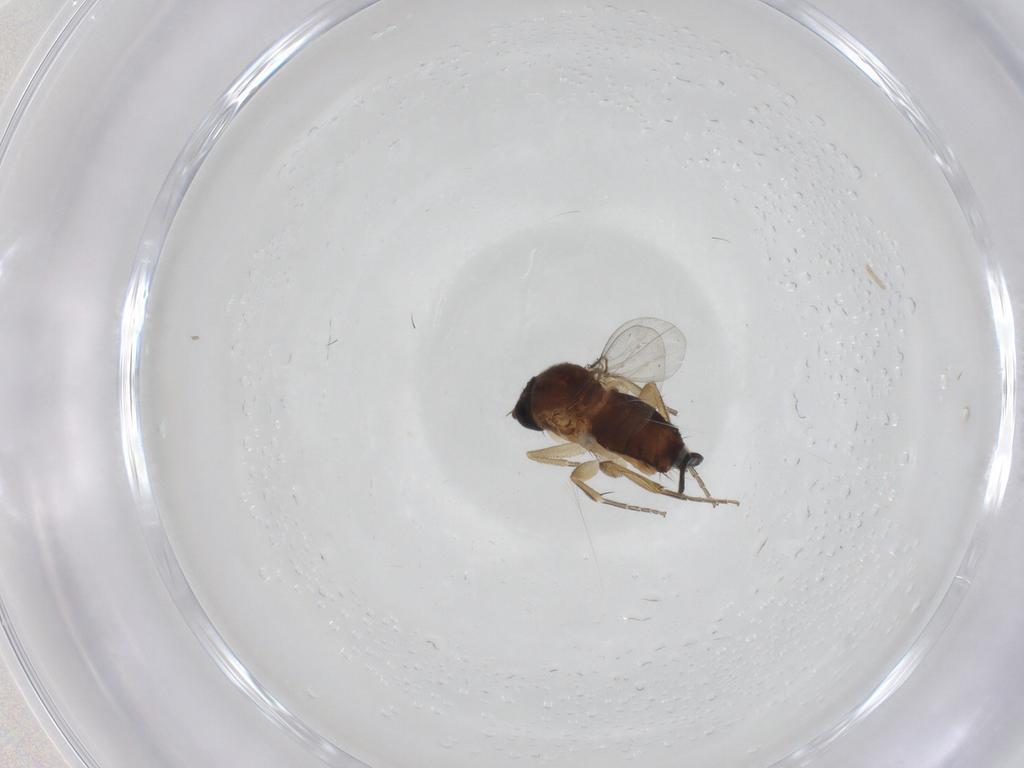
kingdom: Animalia
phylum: Arthropoda
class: Insecta
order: Diptera
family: Phoridae
